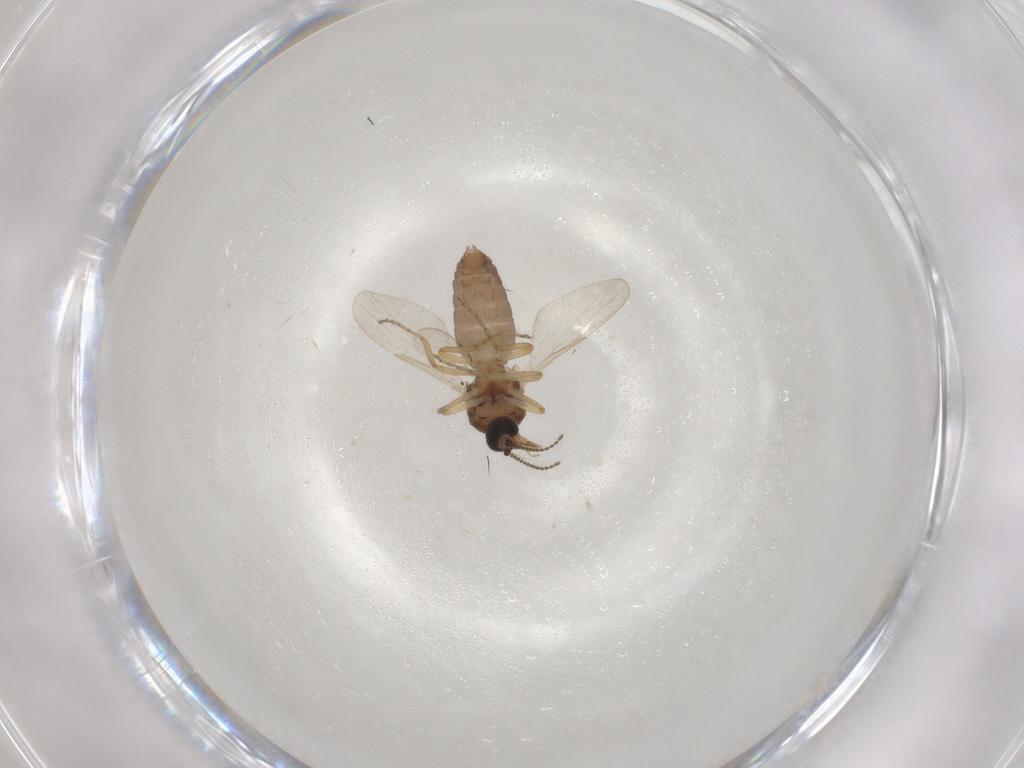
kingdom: Animalia
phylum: Arthropoda
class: Insecta
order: Diptera
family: Ceratopogonidae
